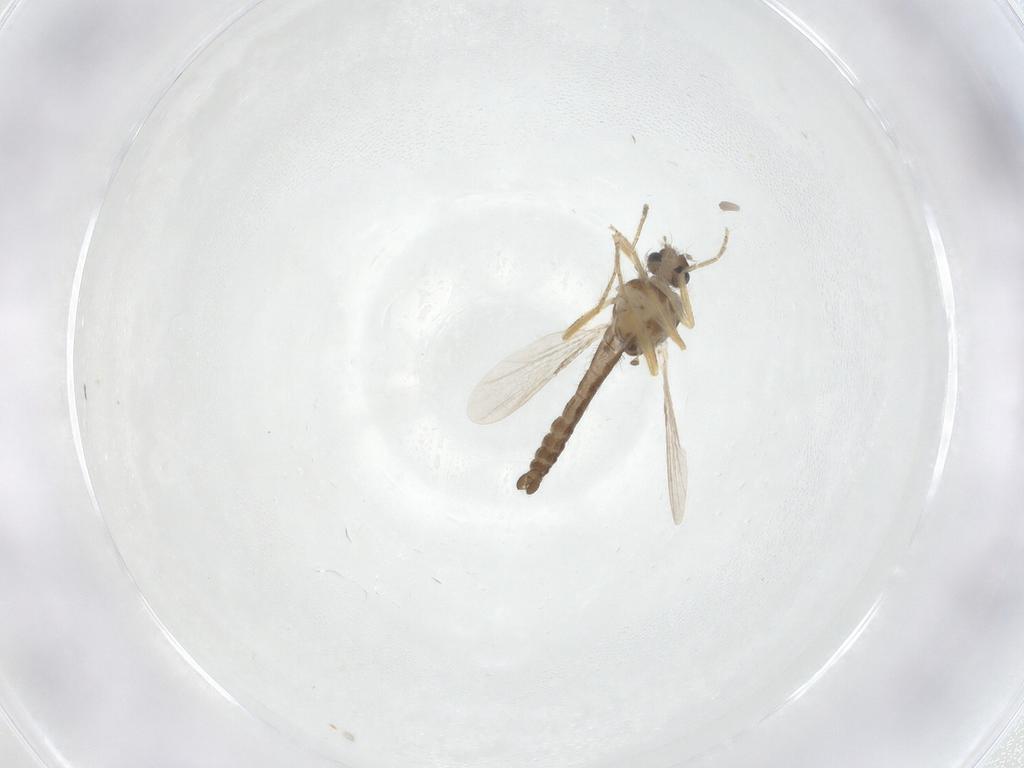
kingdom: Animalia
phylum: Arthropoda
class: Insecta
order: Diptera
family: Ceratopogonidae
